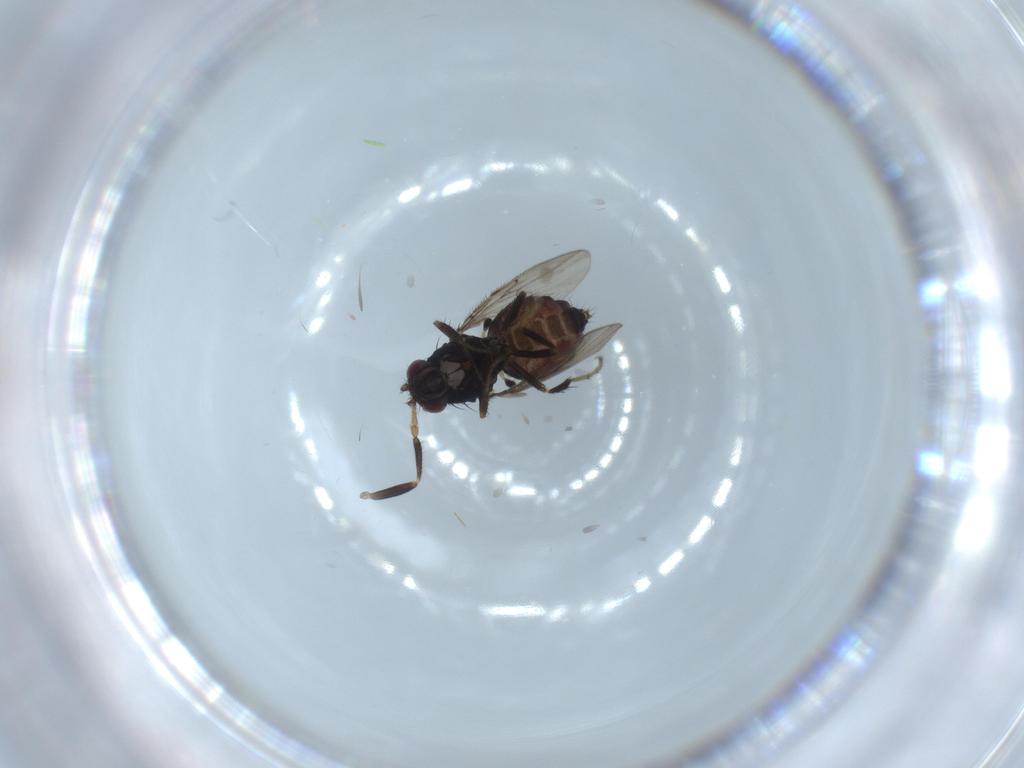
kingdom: Animalia
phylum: Arthropoda
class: Insecta
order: Diptera
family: Sphaeroceridae
